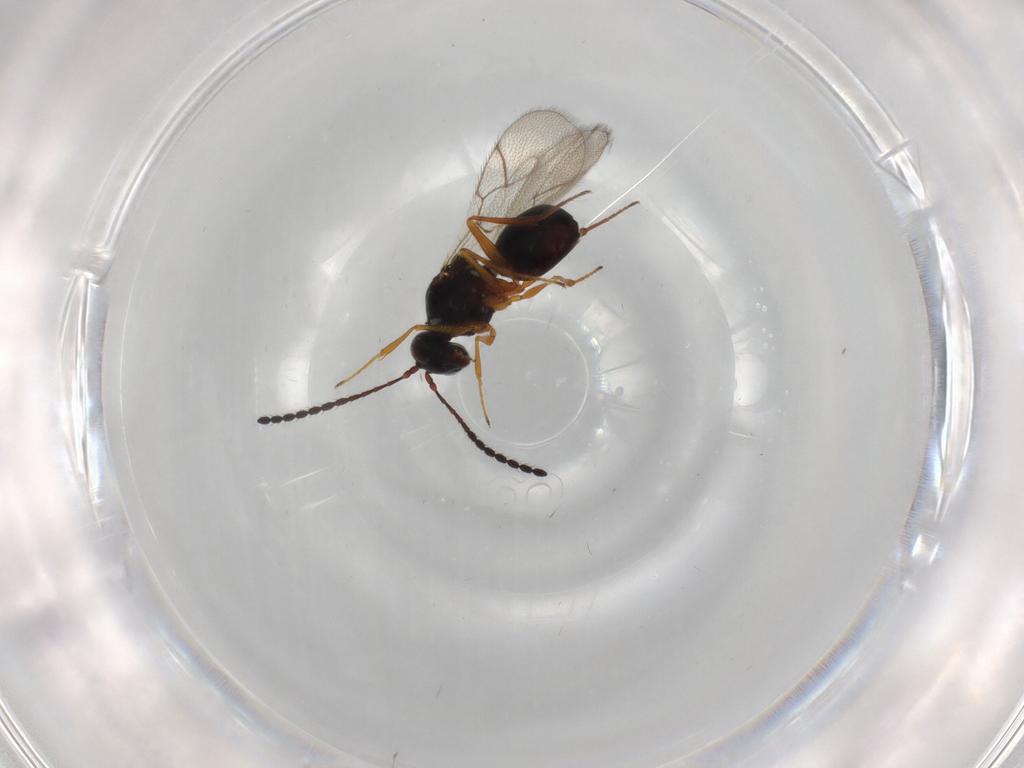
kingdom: Animalia
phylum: Arthropoda
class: Insecta
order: Hymenoptera
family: Figitidae
